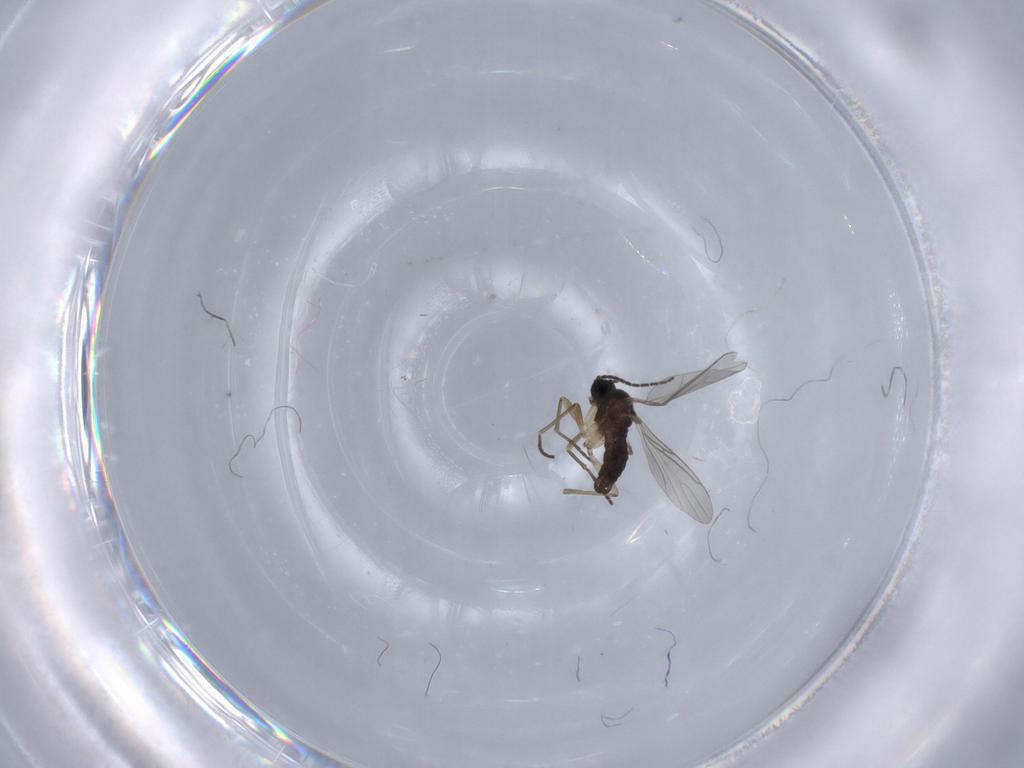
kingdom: Animalia
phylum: Arthropoda
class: Insecta
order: Diptera
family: Sciaridae
